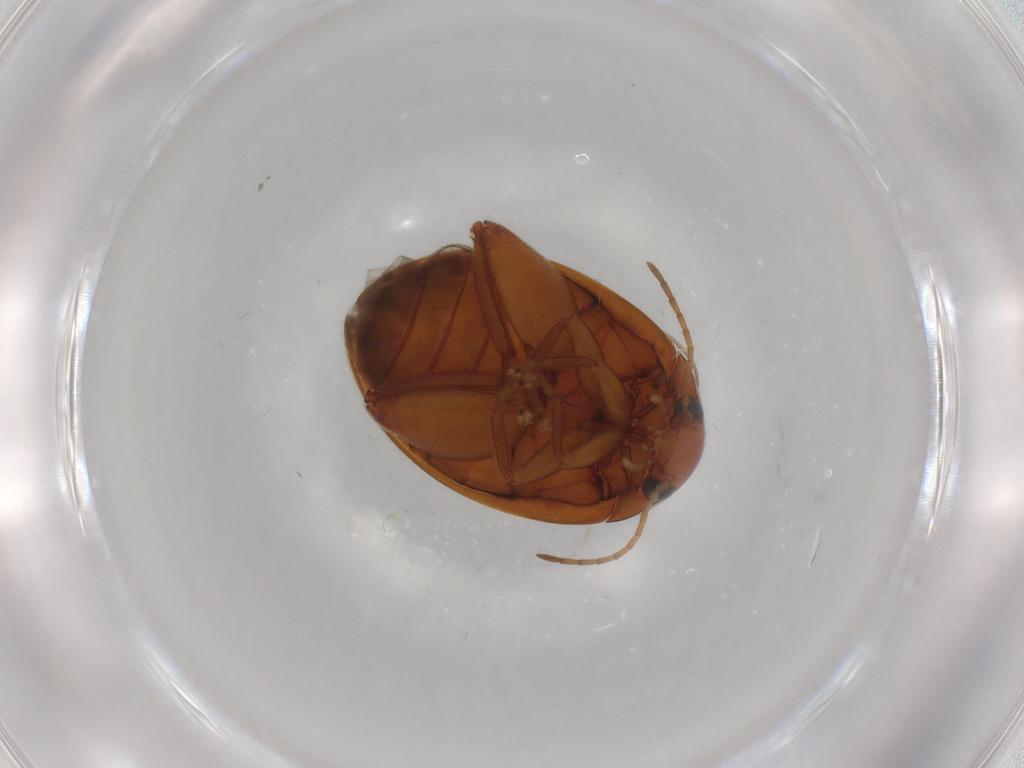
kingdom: Animalia
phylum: Arthropoda
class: Insecta
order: Coleoptera
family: Scirtidae
